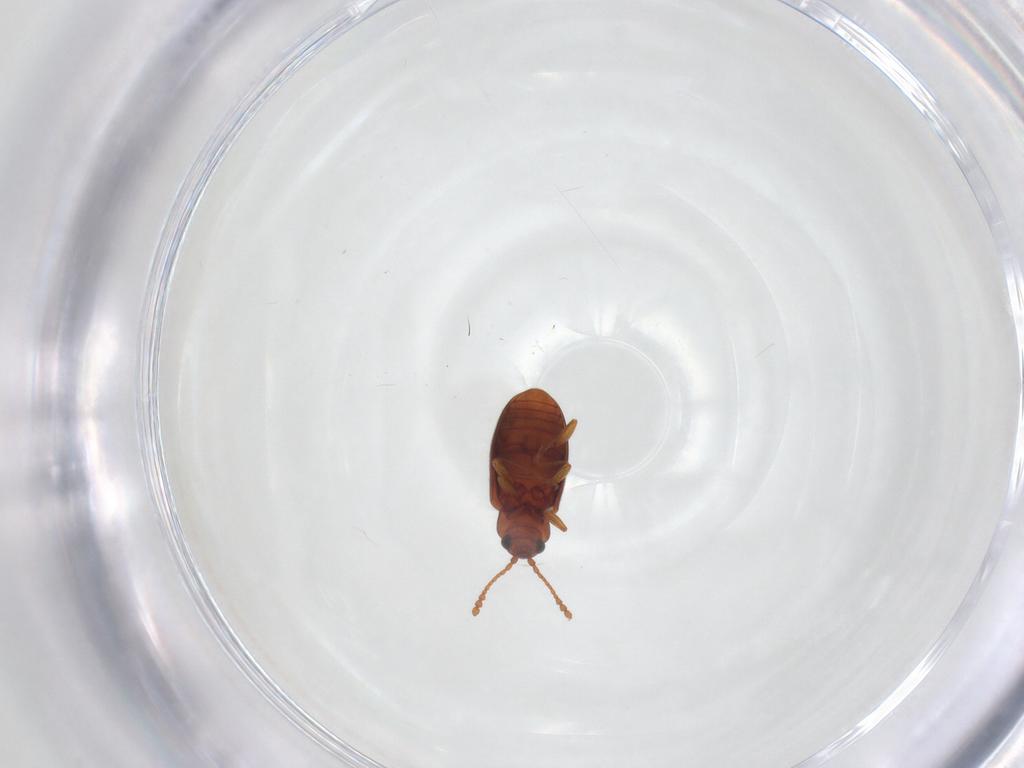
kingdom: Animalia
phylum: Arthropoda
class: Insecta
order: Coleoptera
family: Cryptophagidae
